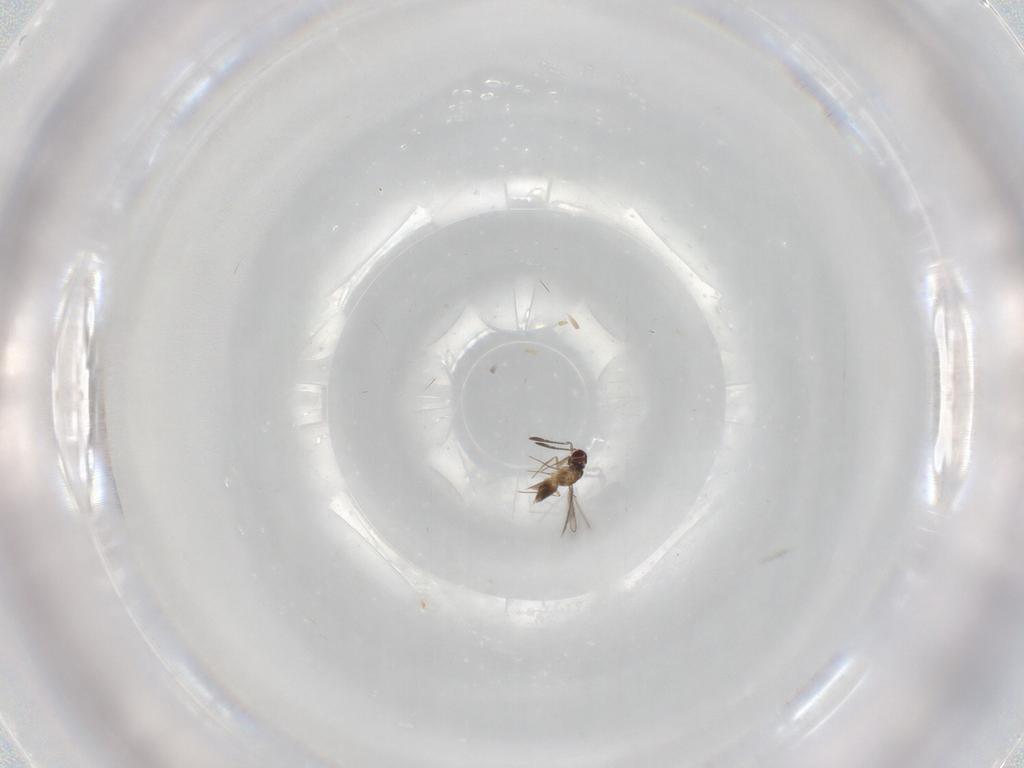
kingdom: Animalia
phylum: Arthropoda
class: Insecta
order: Hymenoptera
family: Mymaridae
